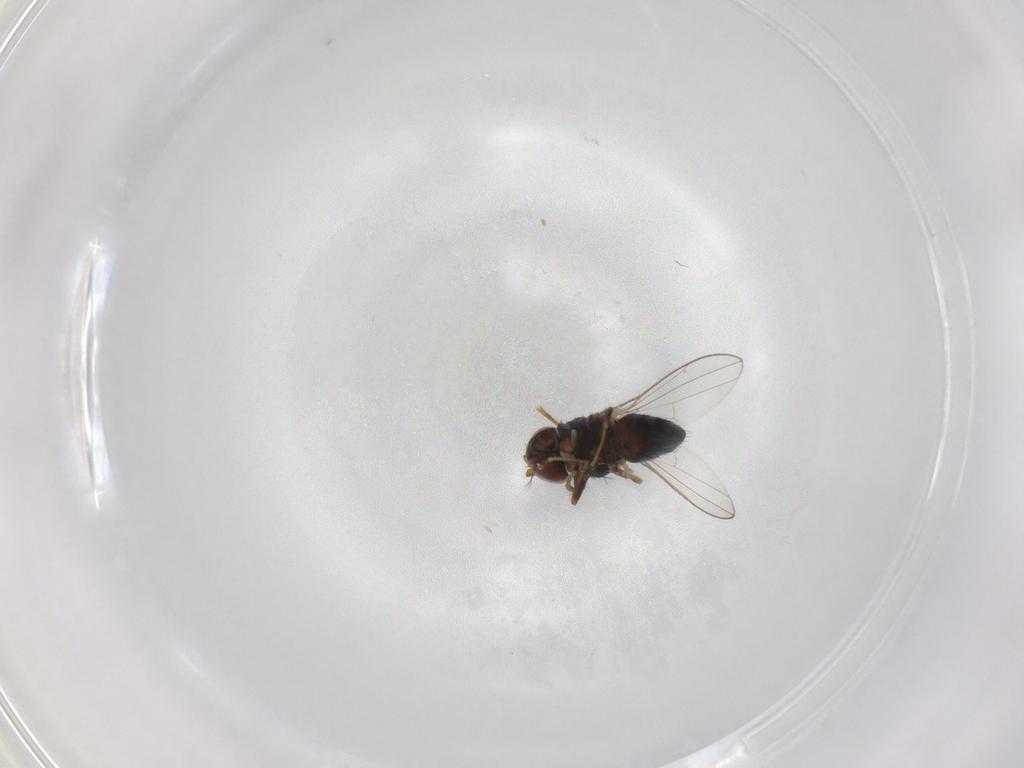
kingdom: Animalia
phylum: Arthropoda
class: Insecta
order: Diptera
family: Ephydridae
